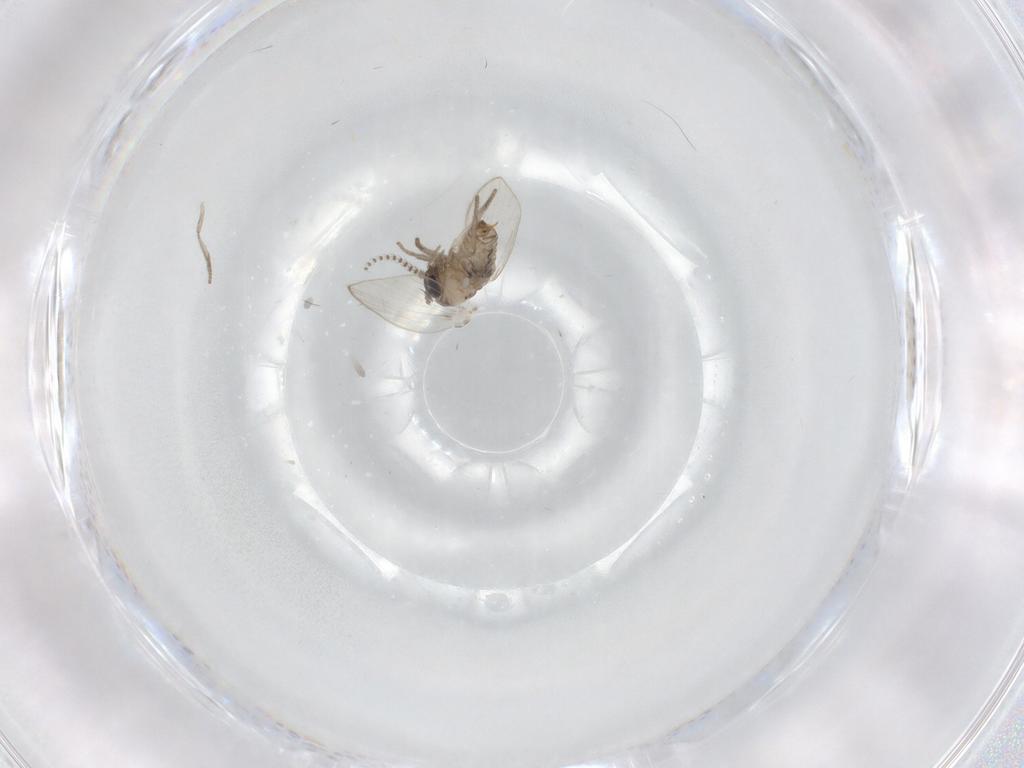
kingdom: Animalia
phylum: Arthropoda
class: Insecta
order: Diptera
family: Psychodidae
